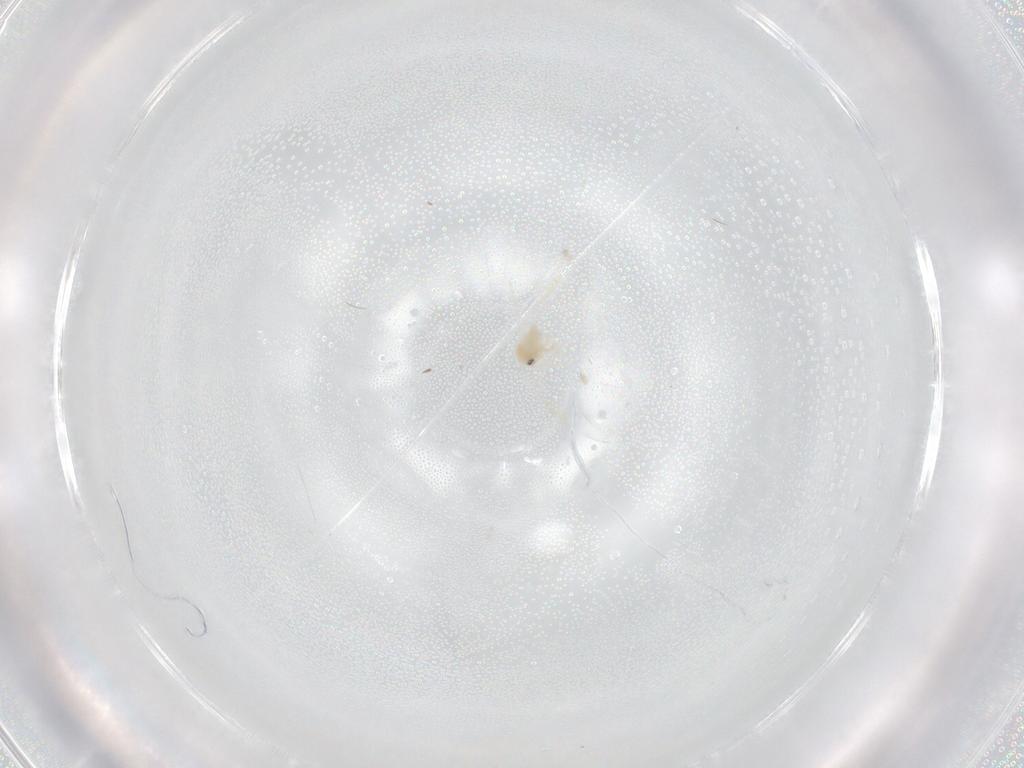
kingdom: Animalia
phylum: Arthropoda
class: Insecta
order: Hemiptera
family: Aleyrodidae
